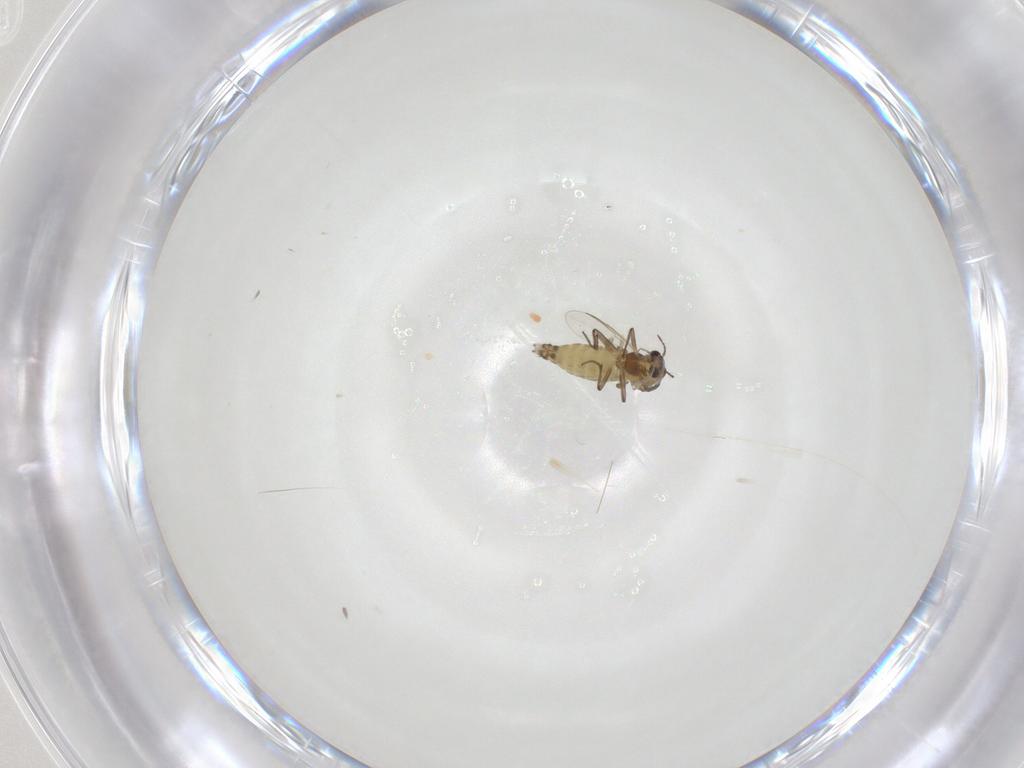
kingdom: Animalia
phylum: Arthropoda
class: Insecta
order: Diptera
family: Chironomidae
